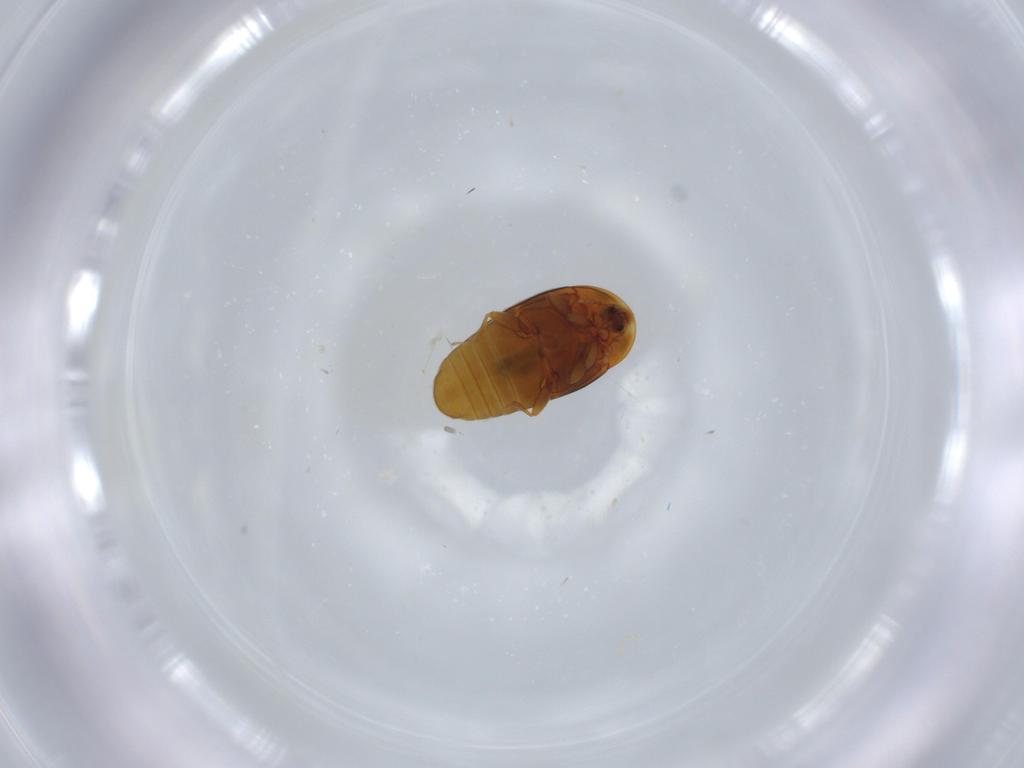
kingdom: Animalia
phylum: Arthropoda
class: Insecta
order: Coleoptera
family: Corylophidae
